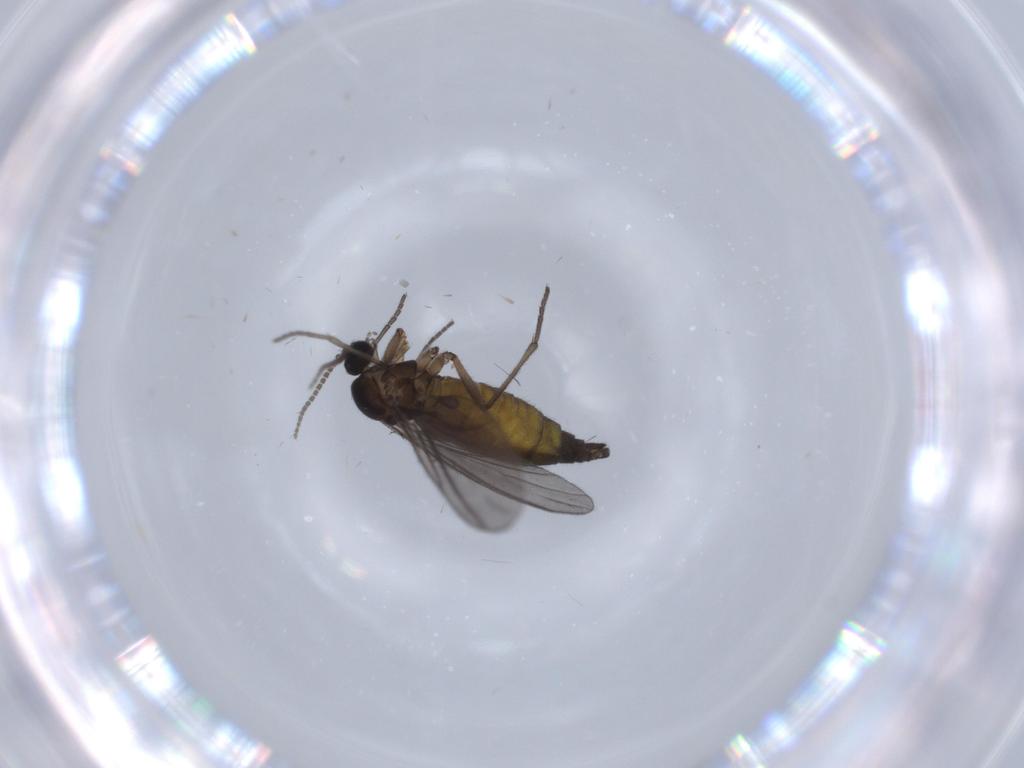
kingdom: Animalia
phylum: Arthropoda
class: Insecta
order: Diptera
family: Sciaridae
